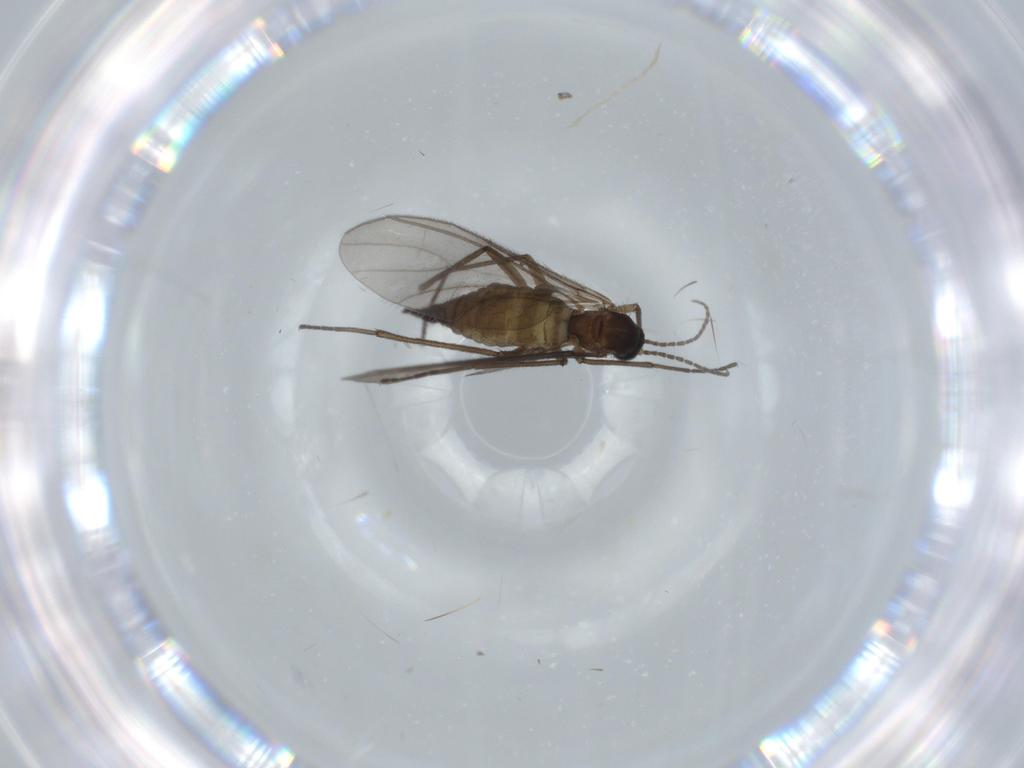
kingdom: Animalia
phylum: Arthropoda
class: Insecta
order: Diptera
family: Sciaridae
